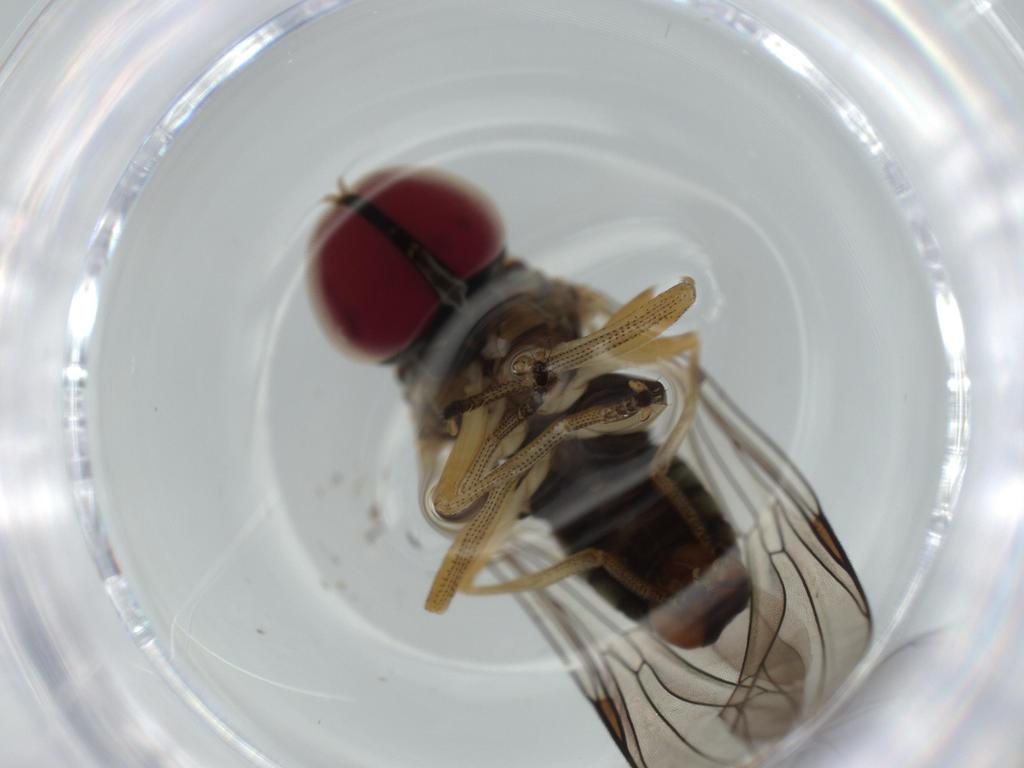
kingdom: Animalia
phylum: Arthropoda
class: Insecta
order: Diptera
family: Phoridae
